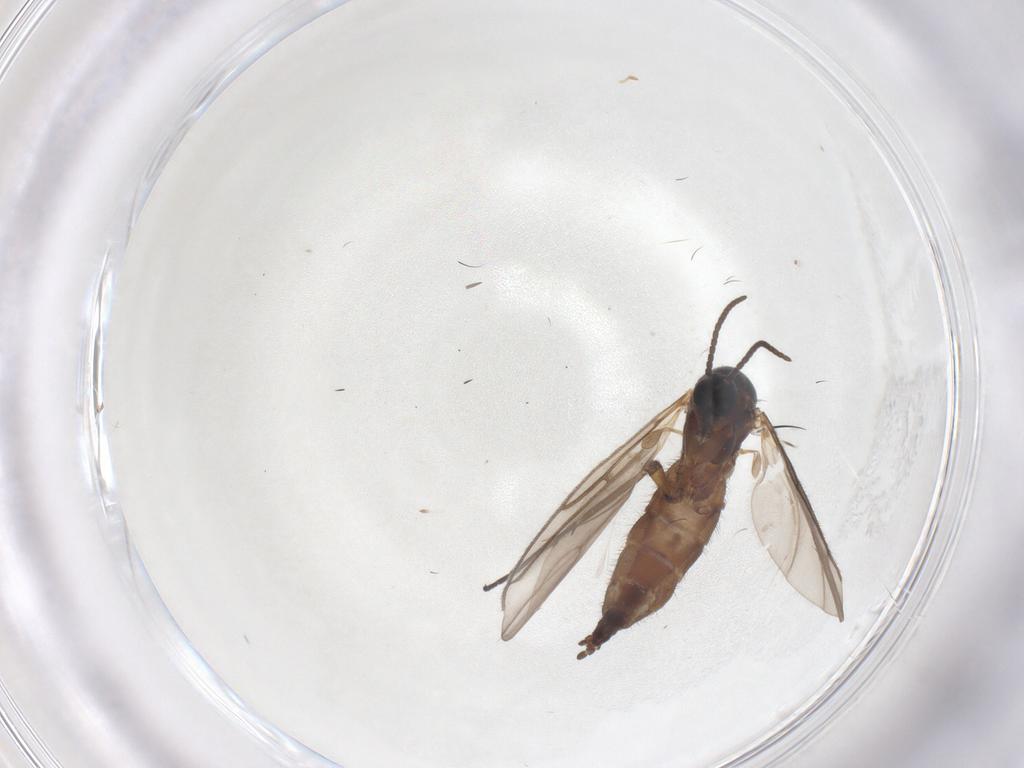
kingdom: Animalia
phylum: Arthropoda
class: Insecta
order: Diptera
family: Sciaridae
